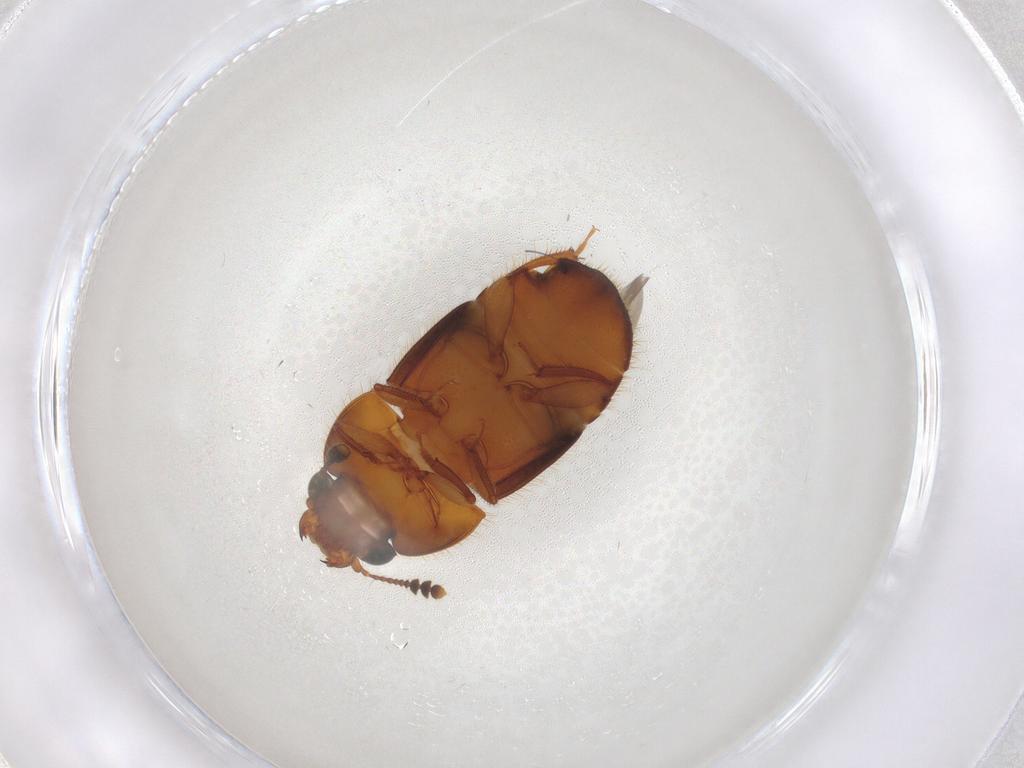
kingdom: Animalia
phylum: Arthropoda
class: Insecta
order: Coleoptera
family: Nitidulidae
